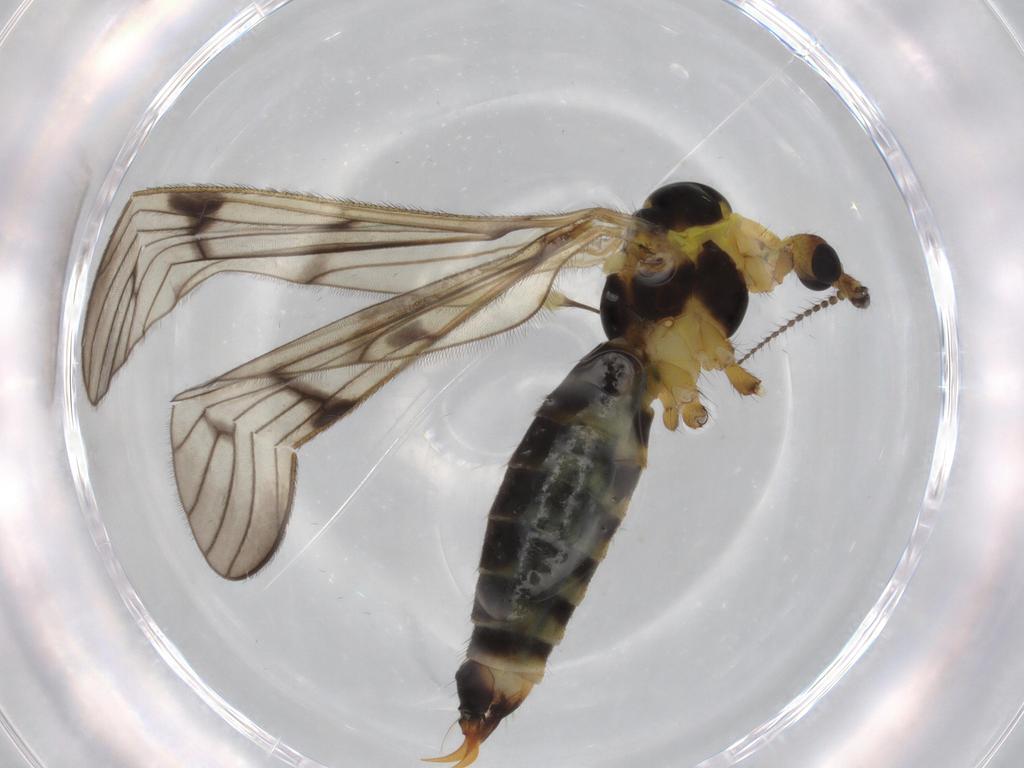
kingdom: Animalia
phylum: Arthropoda
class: Insecta
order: Diptera
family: Limoniidae
